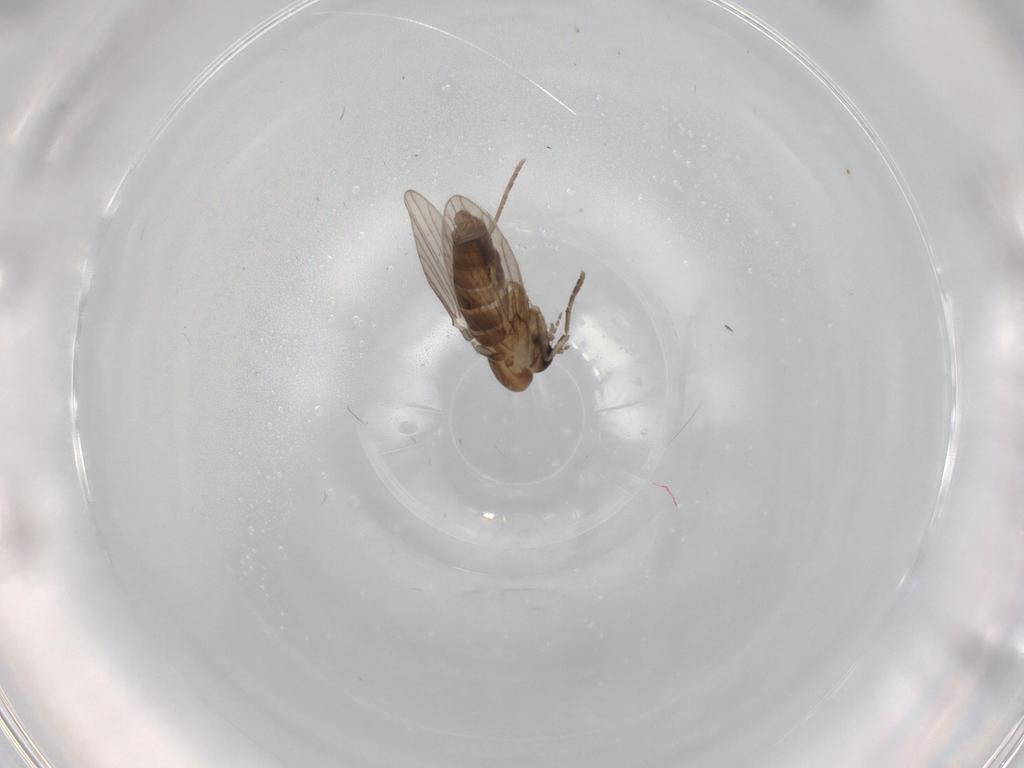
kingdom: Animalia
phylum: Arthropoda
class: Insecta
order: Diptera
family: Psychodidae
